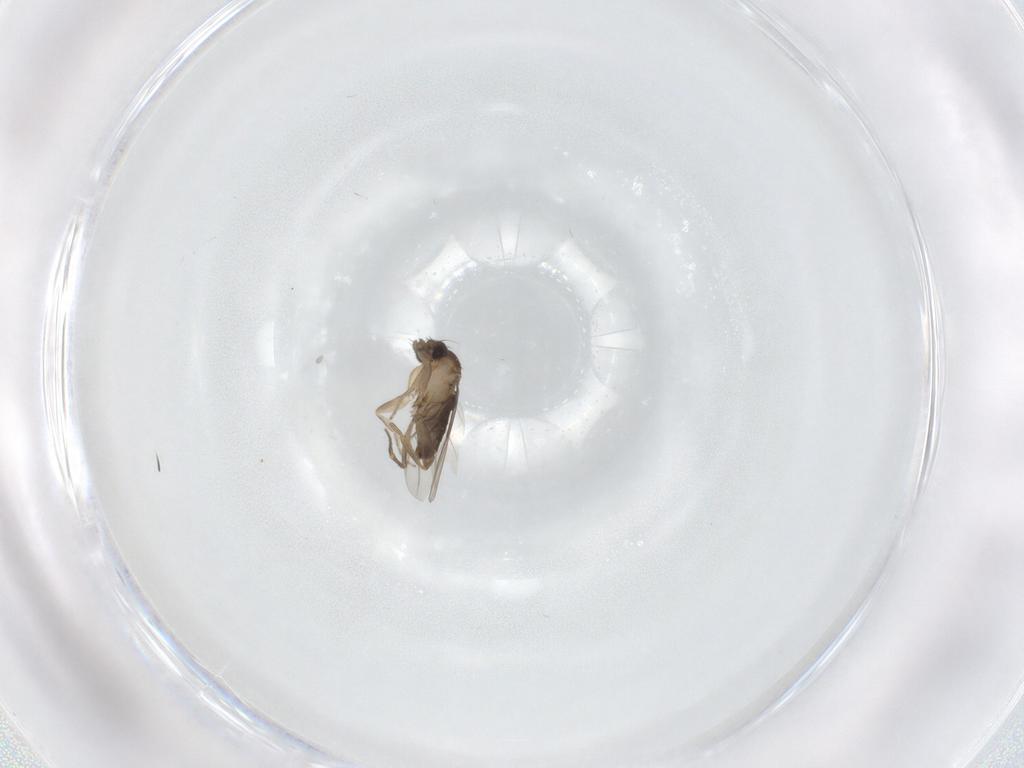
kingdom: Animalia
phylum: Arthropoda
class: Insecta
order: Diptera
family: Phoridae
